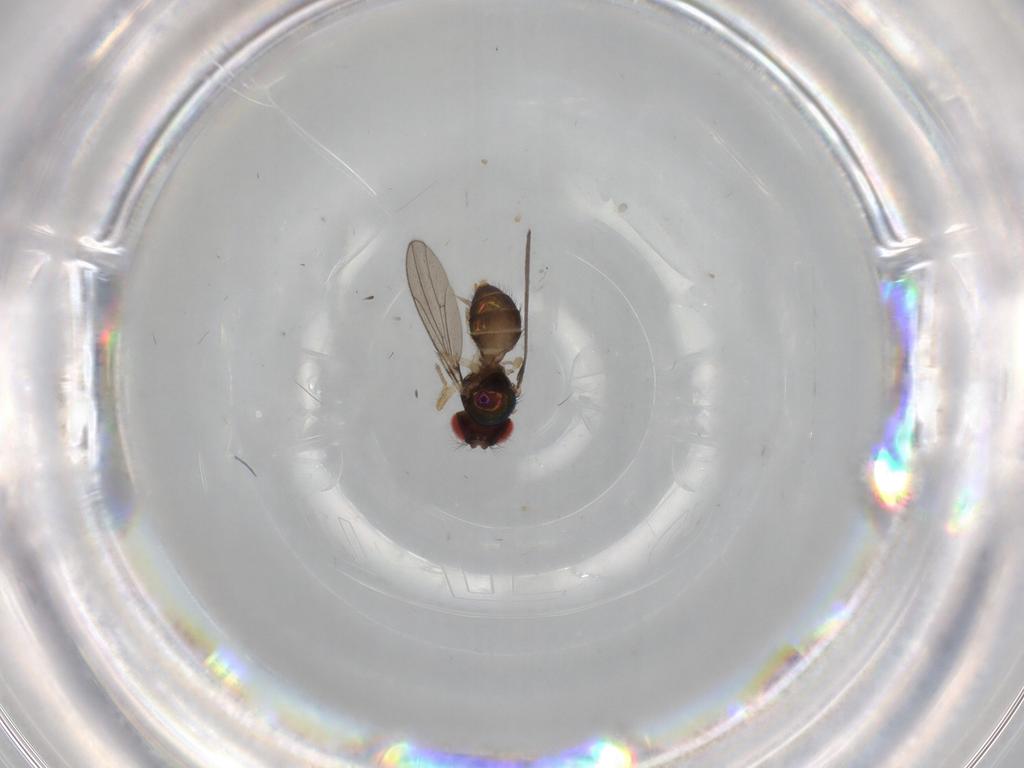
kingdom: Animalia
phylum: Arthropoda
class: Insecta
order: Diptera
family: Drosophilidae
